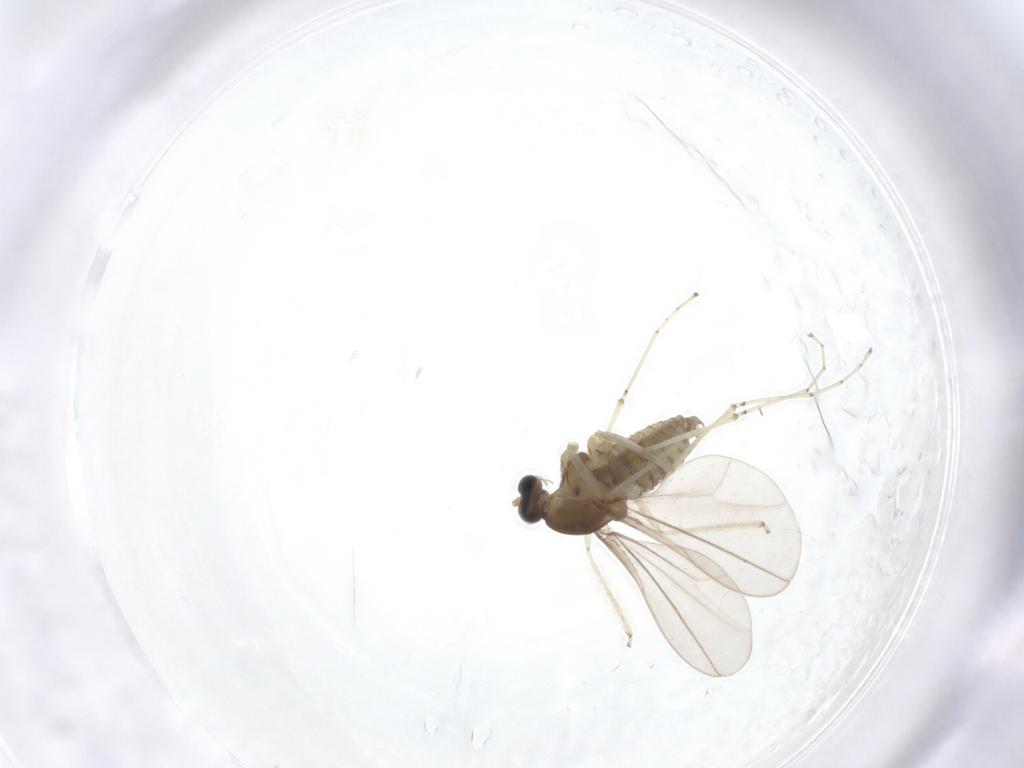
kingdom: Animalia
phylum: Arthropoda
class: Insecta
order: Diptera
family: Cecidomyiidae
